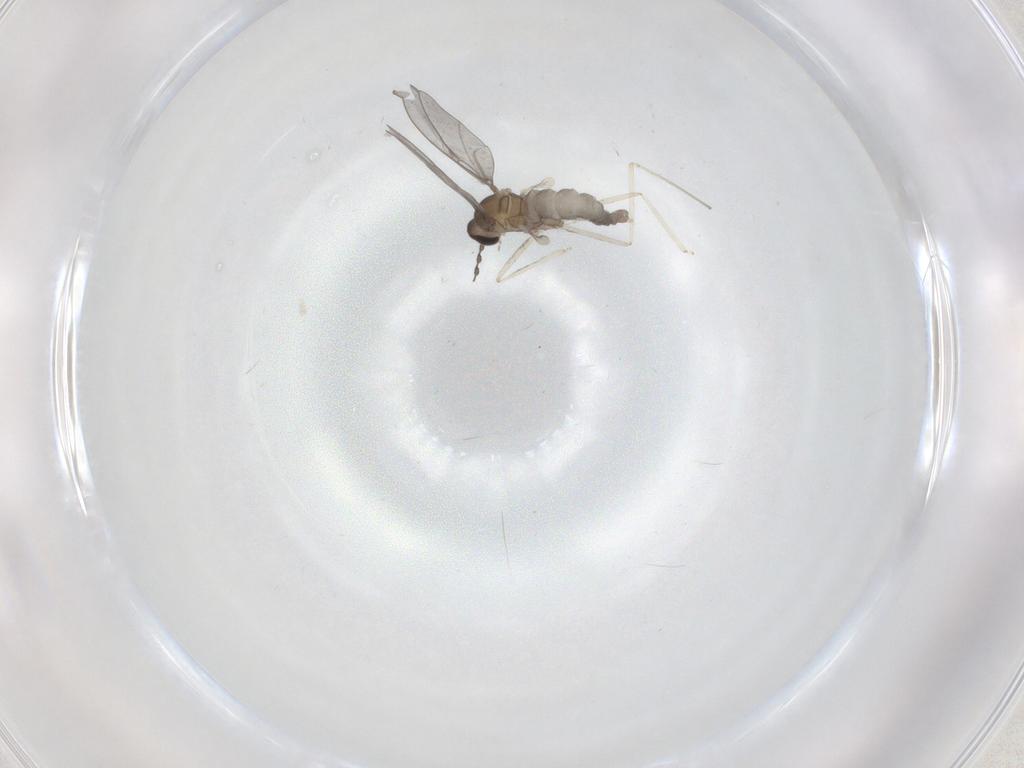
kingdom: Animalia
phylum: Arthropoda
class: Insecta
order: Diptera
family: Cecidomyiidae
